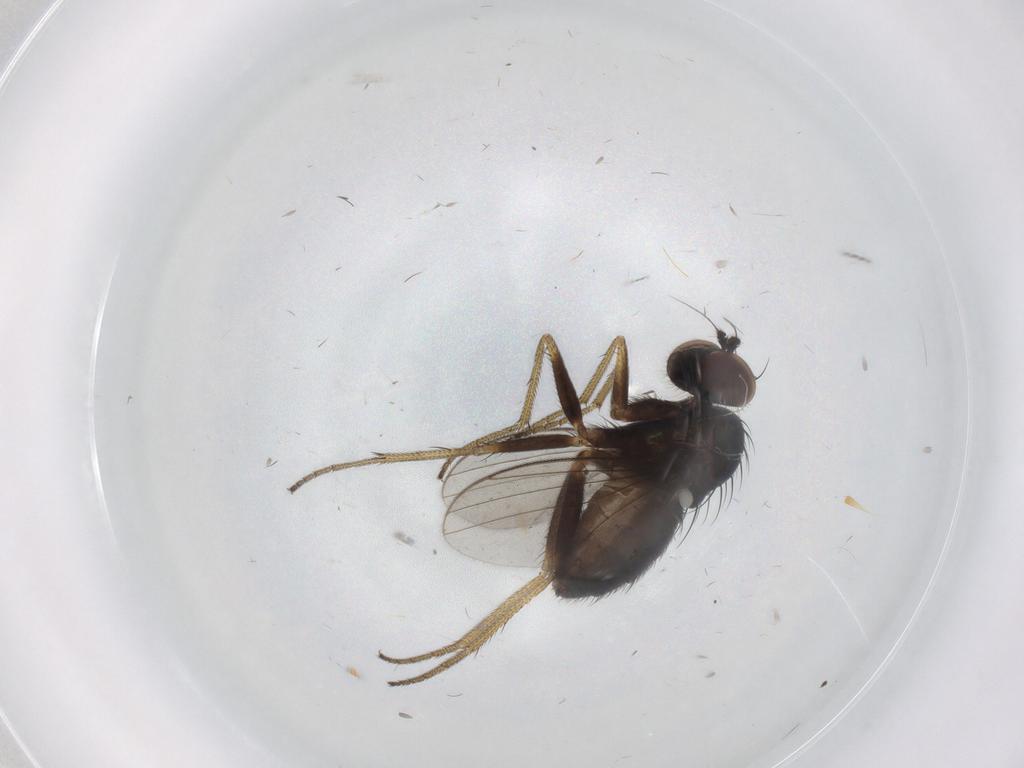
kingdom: Animalia
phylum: Arthropoda
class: Insecta
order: Diptera
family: Dolichopodidae
